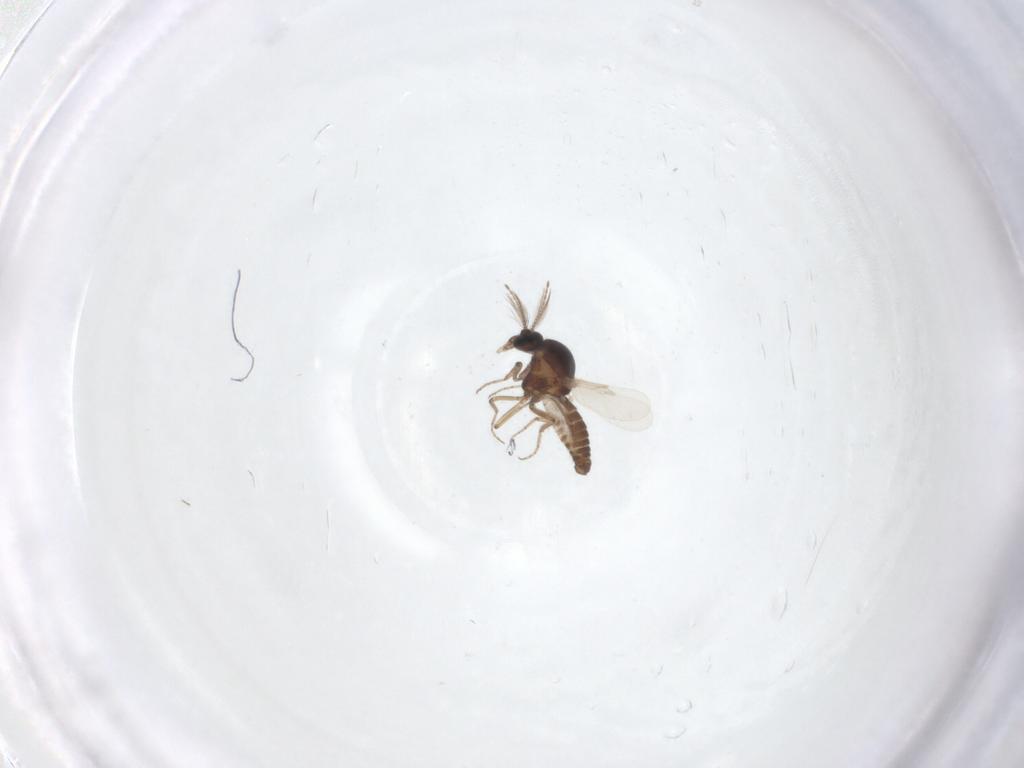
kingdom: Animalia
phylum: Arthropoda
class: Insecta
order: Diptera
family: Ceratopogonidae
